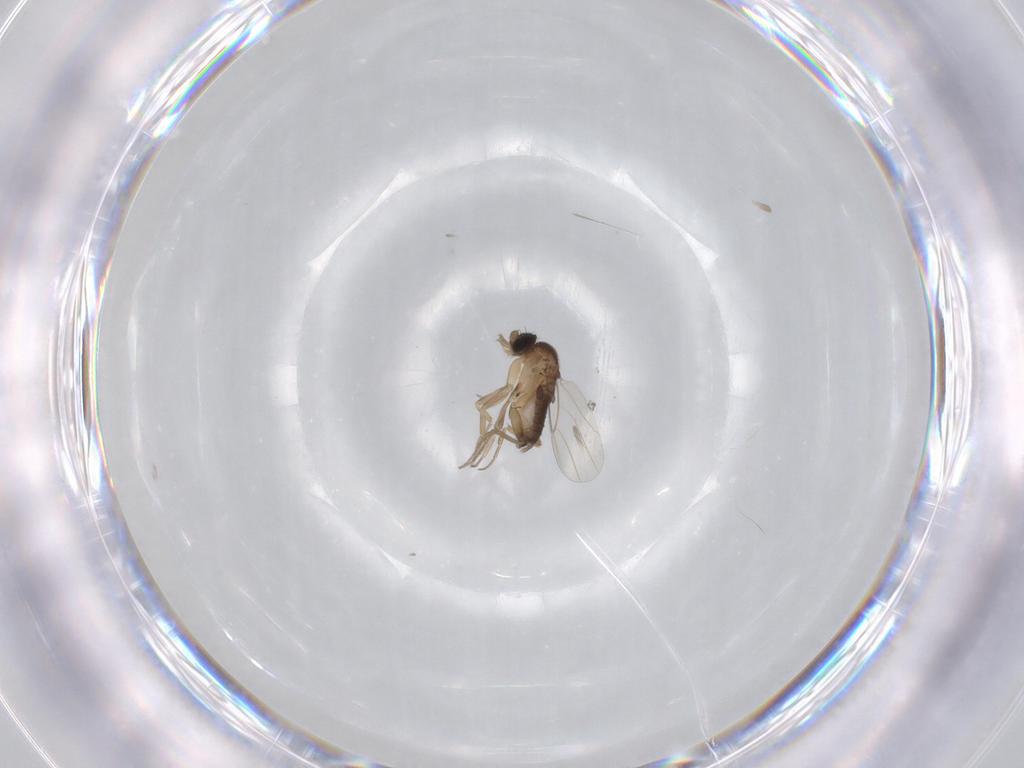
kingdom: Animalia
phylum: Arthropoda
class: Insecta
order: Diptera
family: Phoridae
